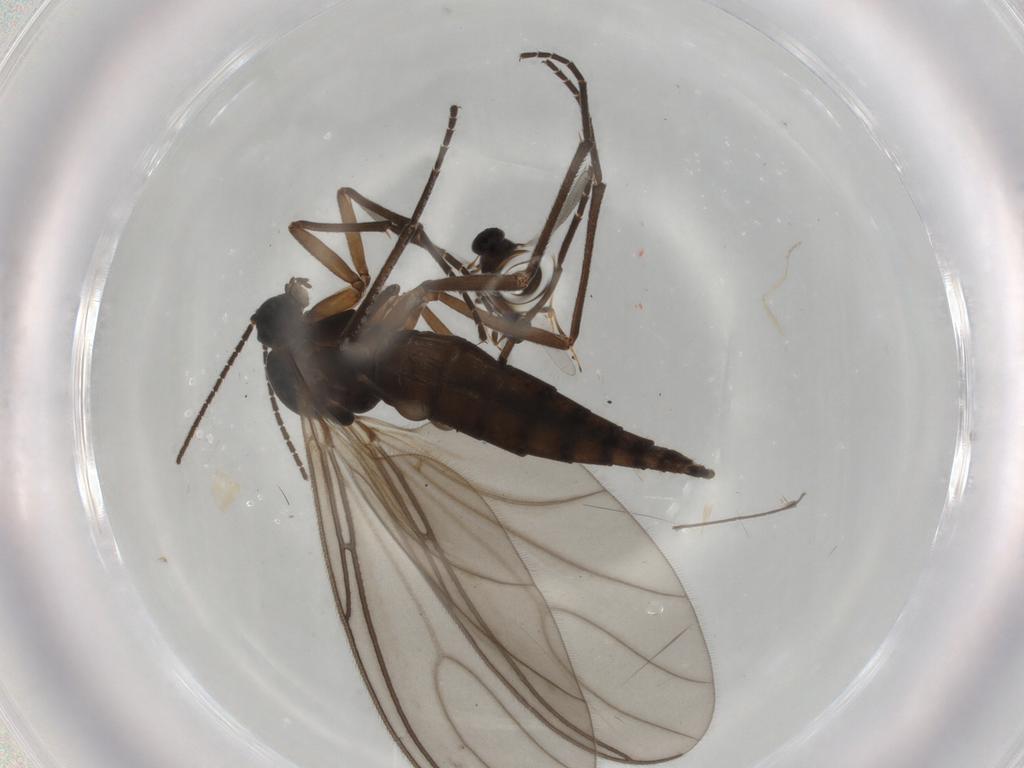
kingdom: Animalia
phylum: Arthropoda
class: Insecta
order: Diptera
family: Sciaridae
